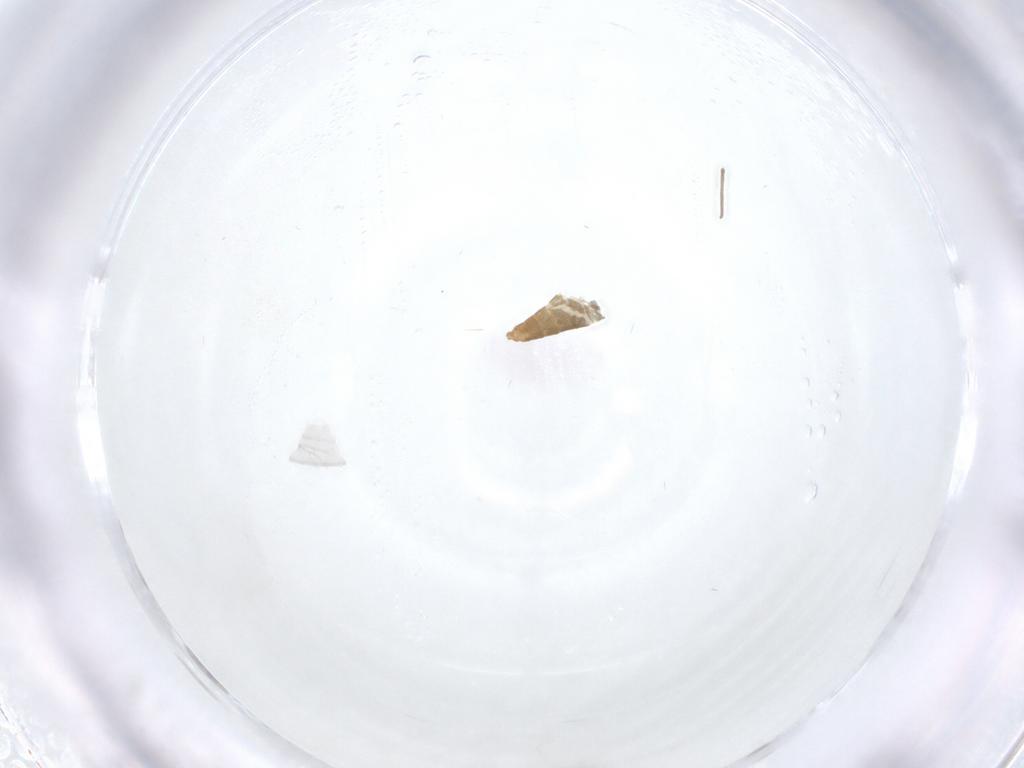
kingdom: Animalia
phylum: Arthropoda
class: Insecta
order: Diptera
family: Chironomidae
